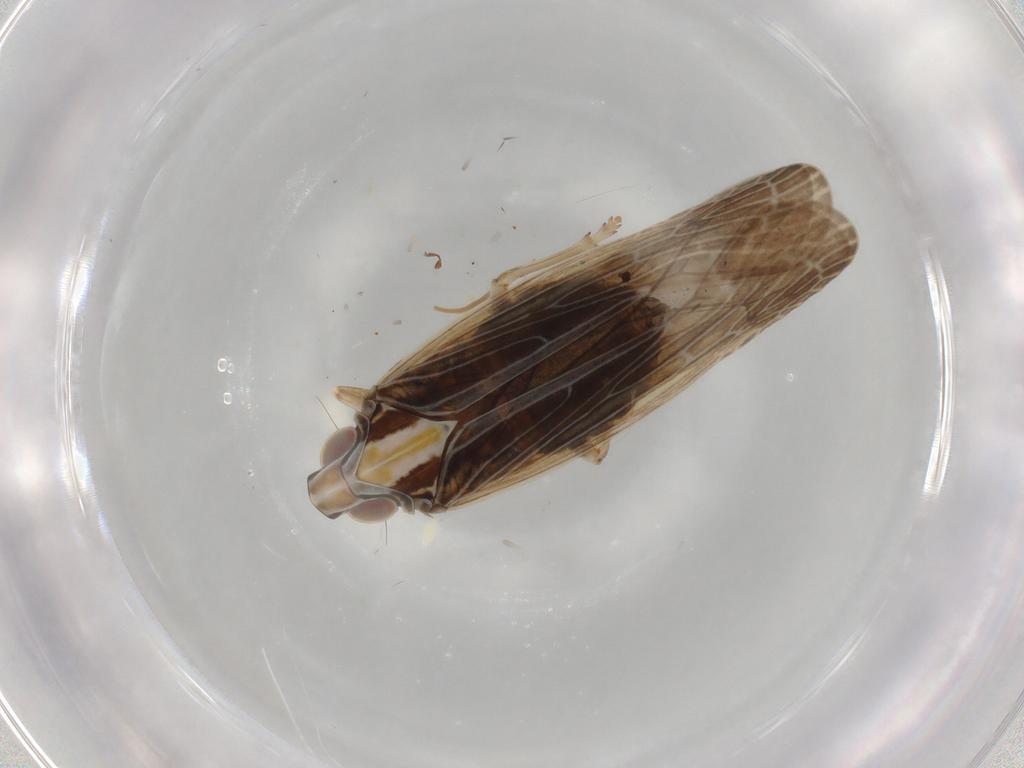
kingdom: Animalia
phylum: Arthropoda
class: Insecta
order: Hemiptera
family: Achilidae
